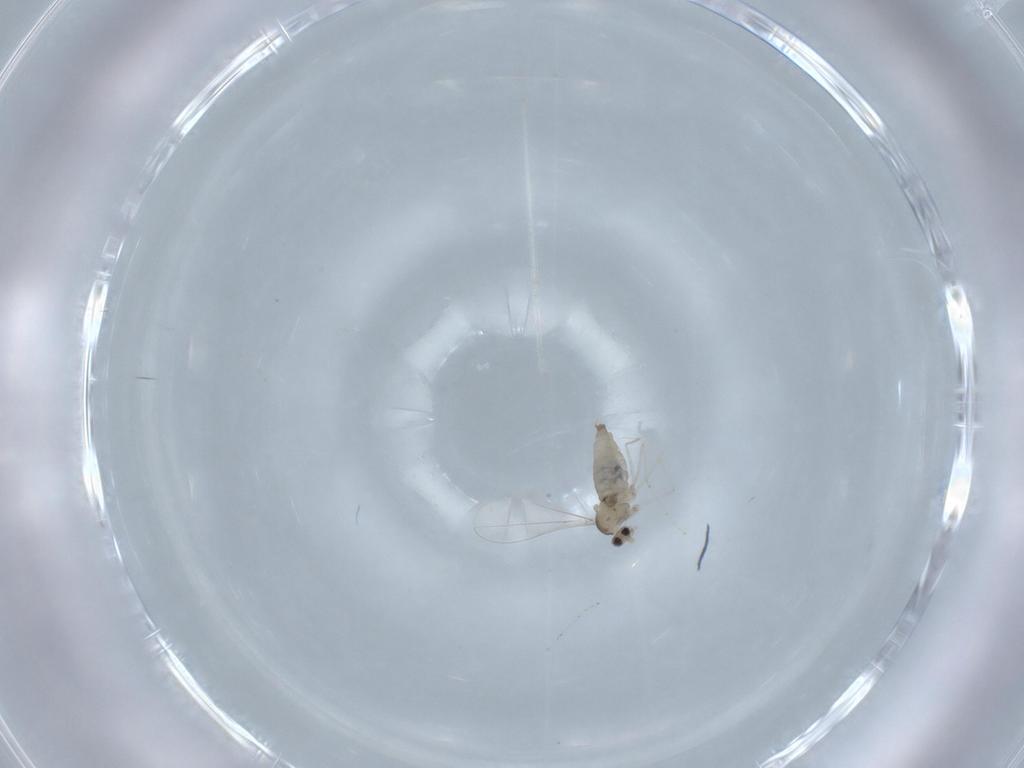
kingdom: Animalia
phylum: Arthropoda
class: Insecta
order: Diptera
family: Cecidomyiidae
